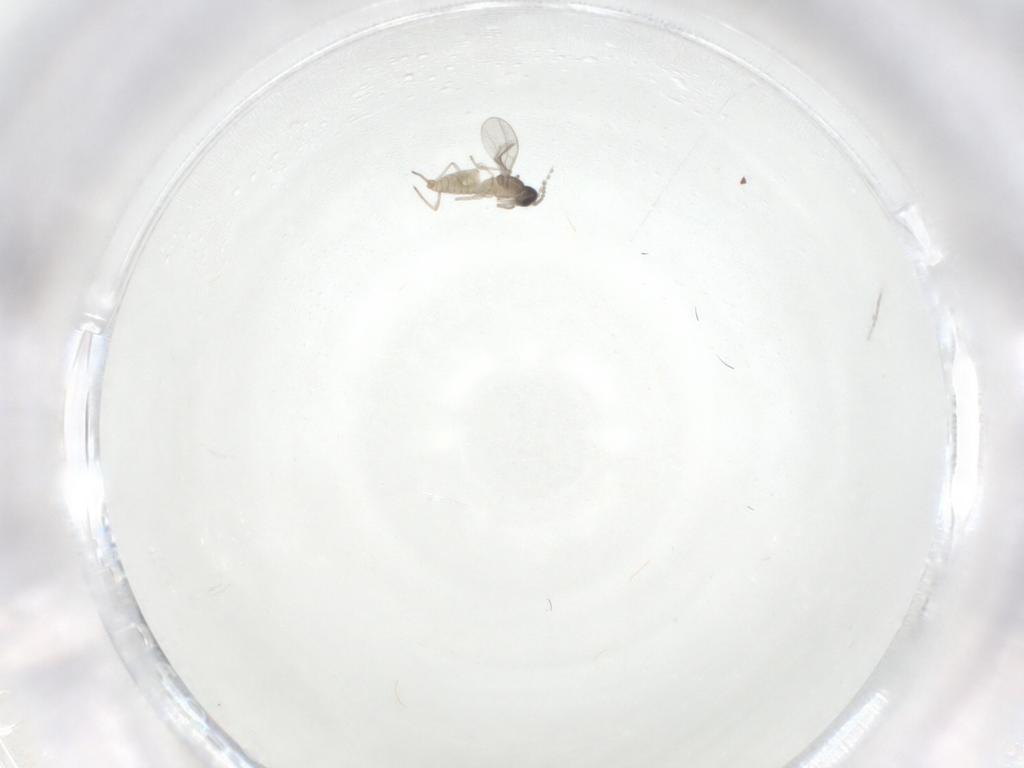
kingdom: Animalia
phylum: Arthropoda
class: Insecta
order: Diptera
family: Cecidomyiidae
